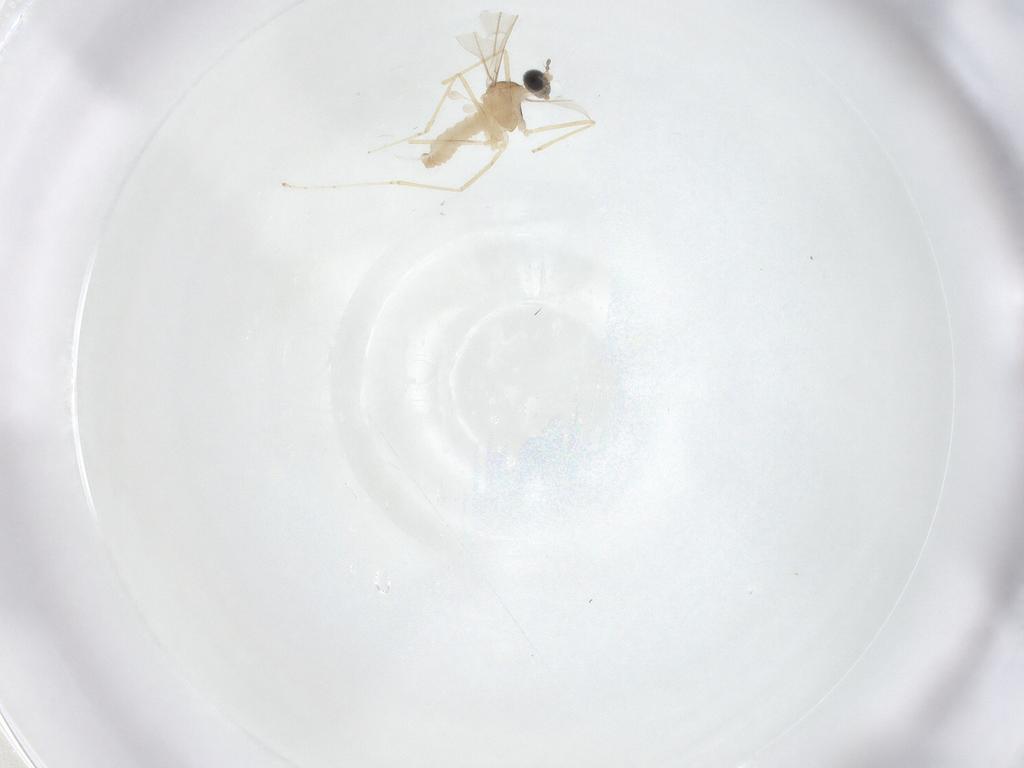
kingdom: Animalia
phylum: Arthropoda
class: Insecta
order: Diptera
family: Cecidomyiidae
